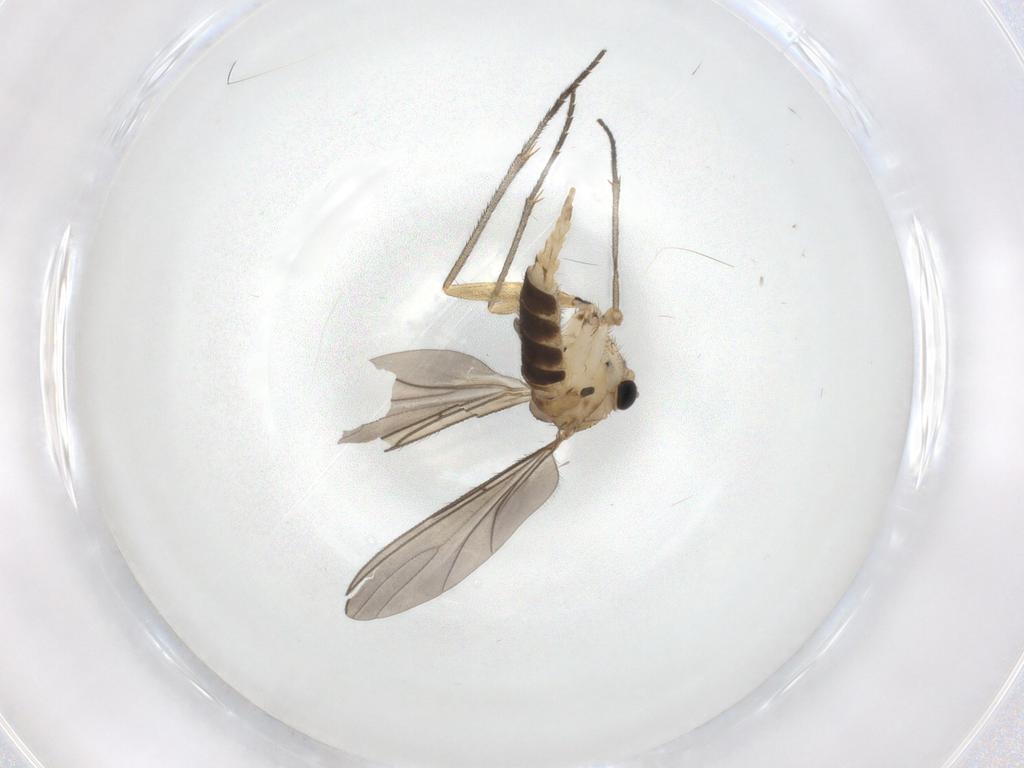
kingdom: Animalia
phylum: Arthropoda
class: Insecta
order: Diptera
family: Sciaridae
